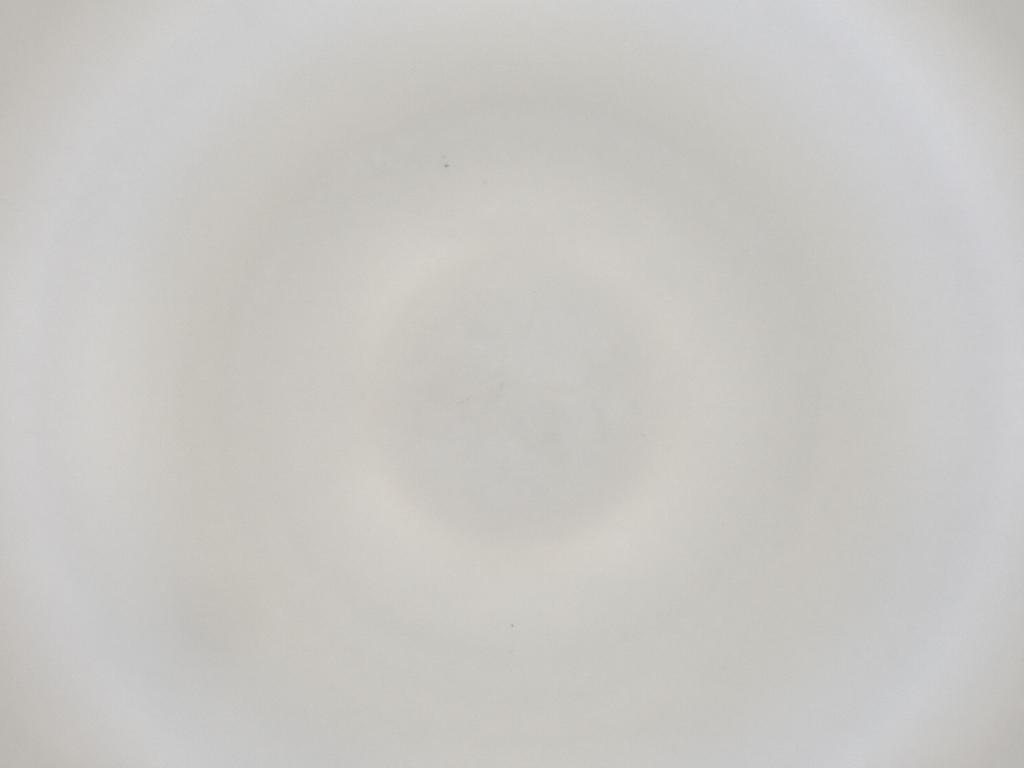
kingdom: Animalia
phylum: Arthropoda
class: Insecta
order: Diptera
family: Cecidomyiidae
